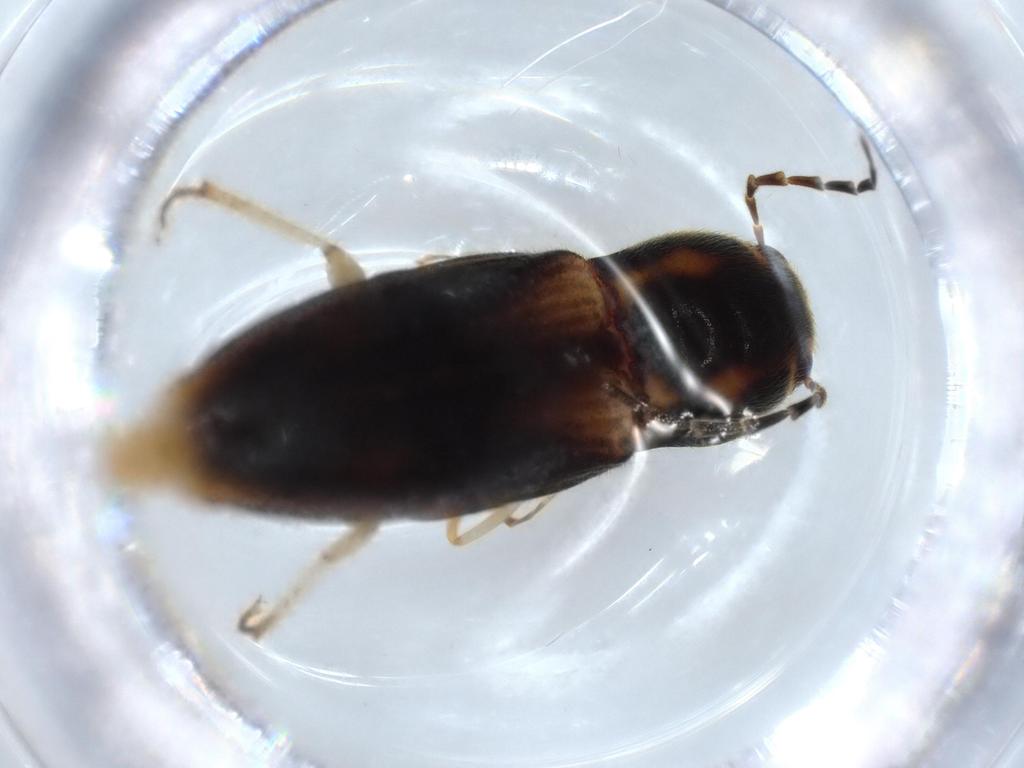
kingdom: Animalia
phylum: Arthropoda
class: Insecta
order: Coleoptera
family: Elateridae
